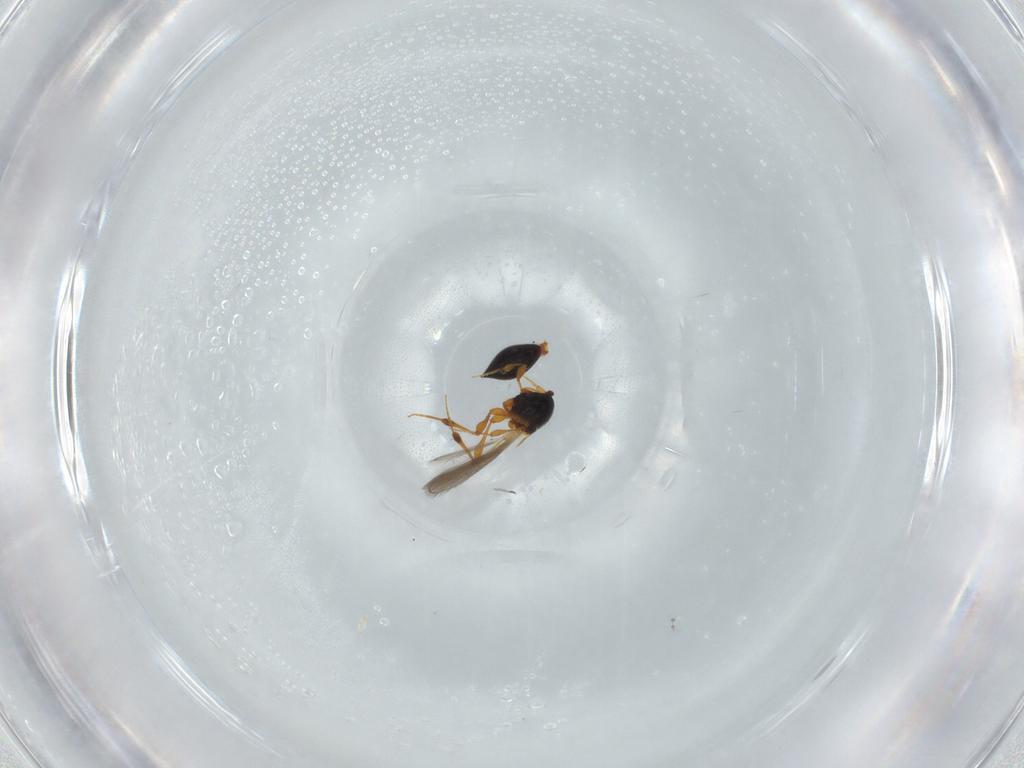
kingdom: Animalia
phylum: Arthropoda
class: Insecta
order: Hymenoptera
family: Platygastridae
